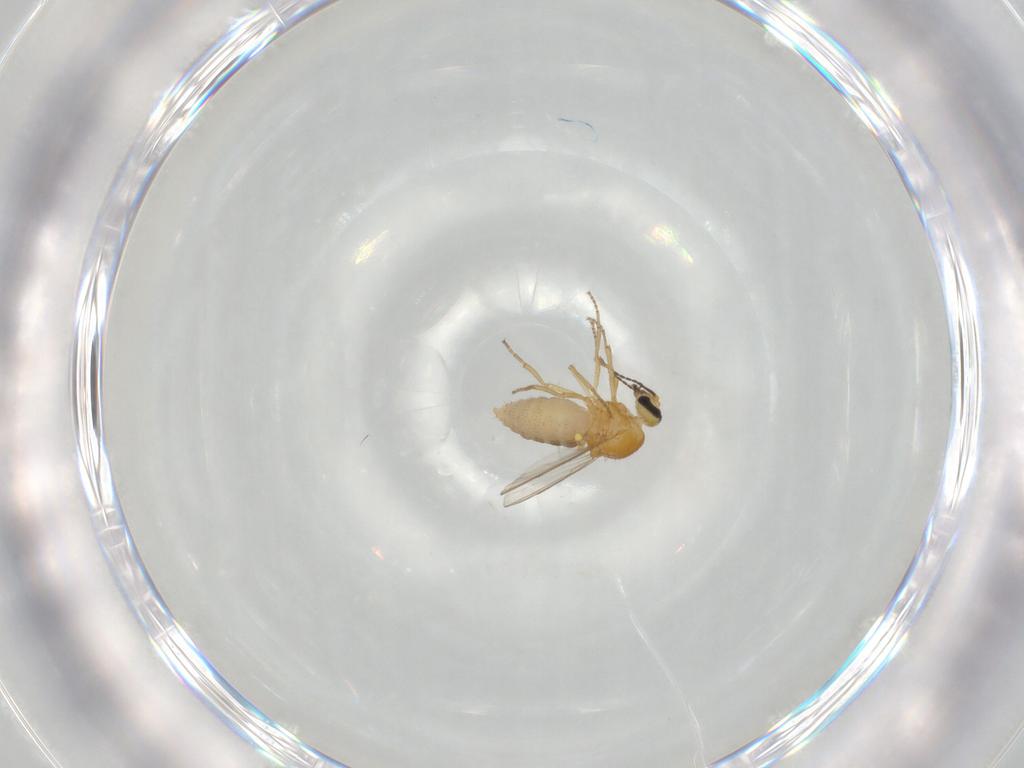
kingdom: Animalia
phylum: Arthropoda
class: Insecta
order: Diptera
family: Ceratopogonidae
